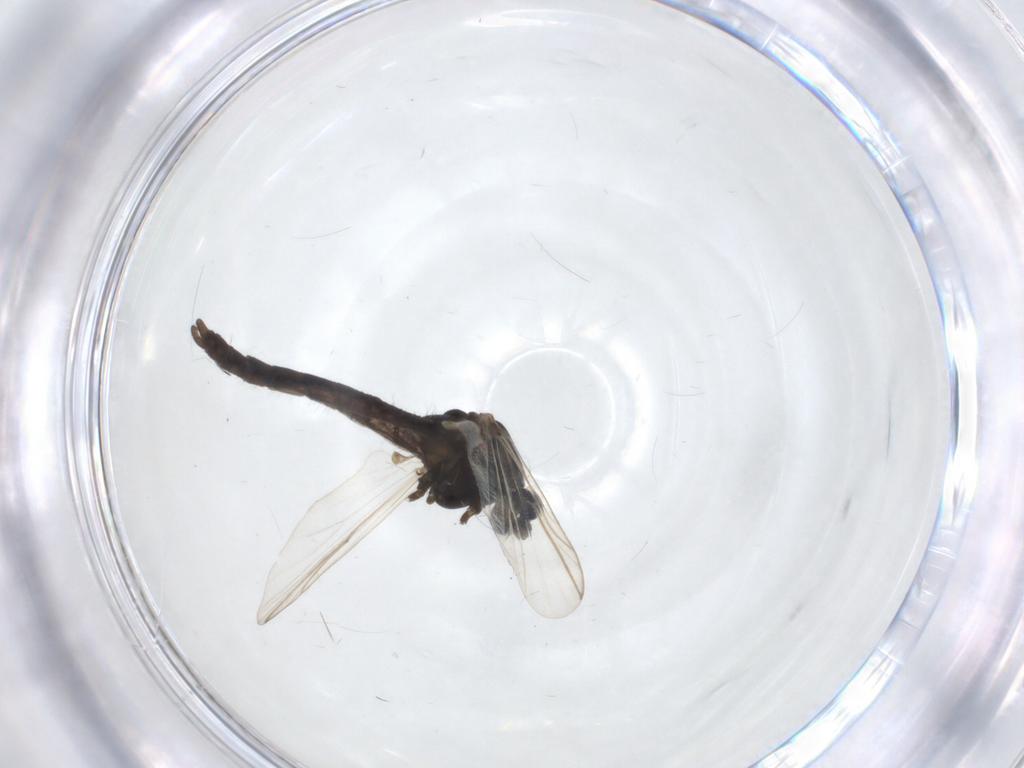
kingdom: Animalia
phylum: Arthropoda
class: Insecta
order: Diptera
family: Chironomidae
